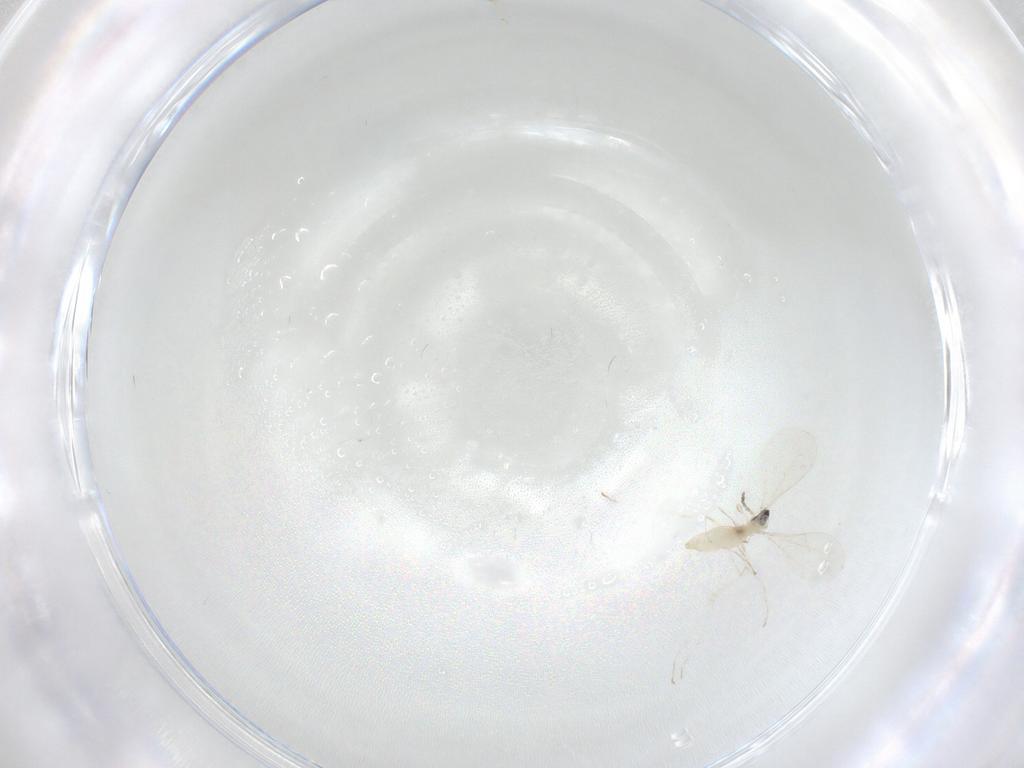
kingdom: Animalia
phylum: Arthropoda
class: Insecta
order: Diptera
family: Cecidomyiidae
